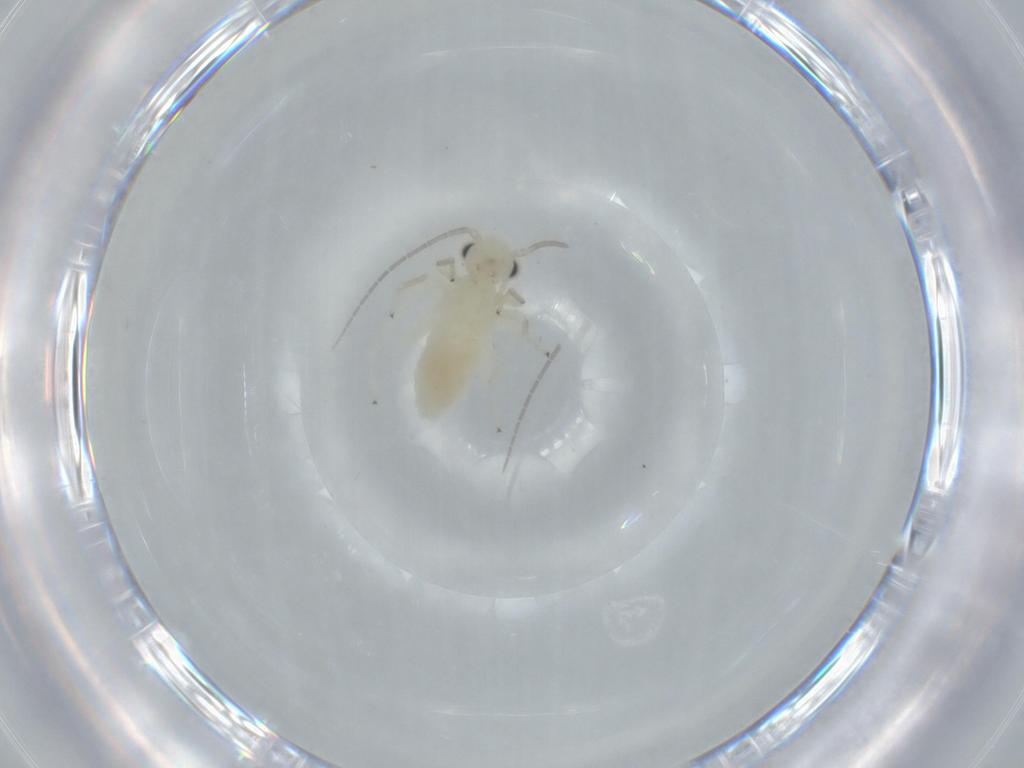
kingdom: Animalia
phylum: Arthropoda
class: Insecta
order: Psocodea
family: Caeciliusidae
